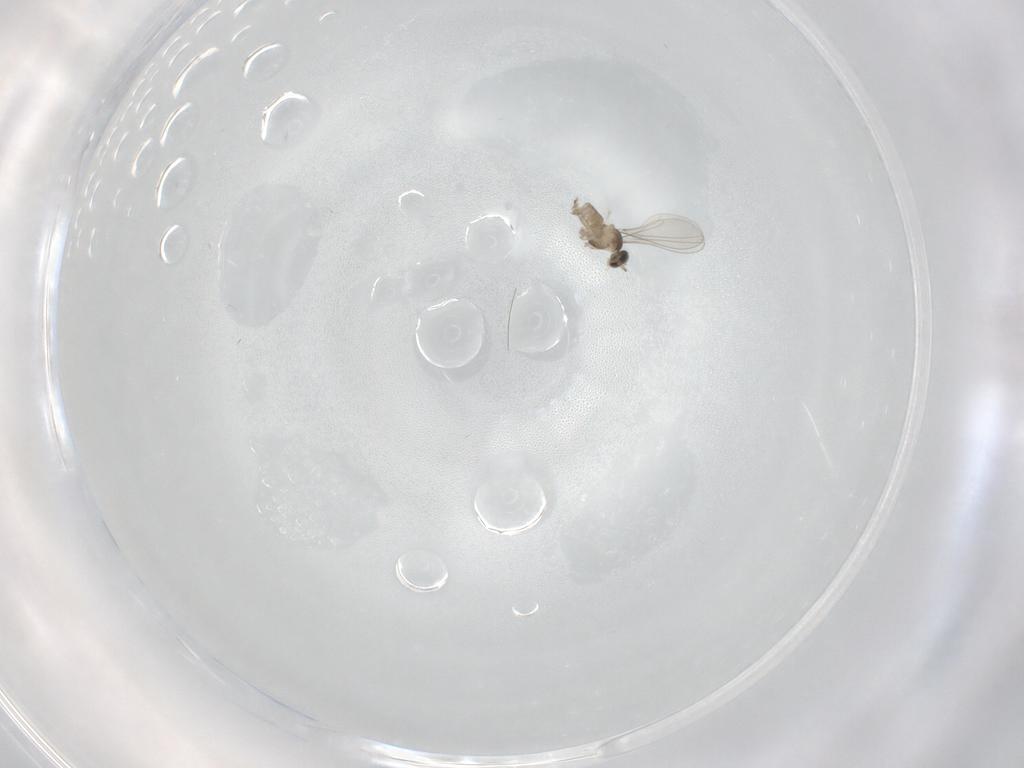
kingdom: Animalia
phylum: Arthropoda
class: Insecta
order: Diptera
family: Cecidomyiidae
